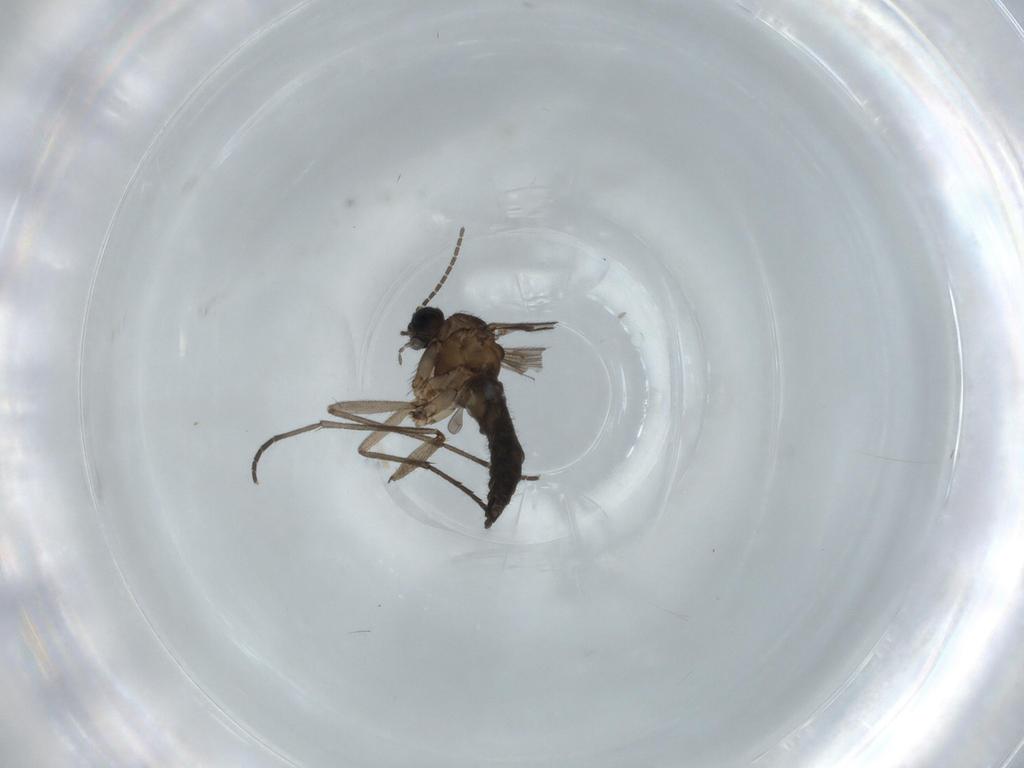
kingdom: Animalia
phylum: Arthropoda
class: Insecta
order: Diptera
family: Sciaridae
